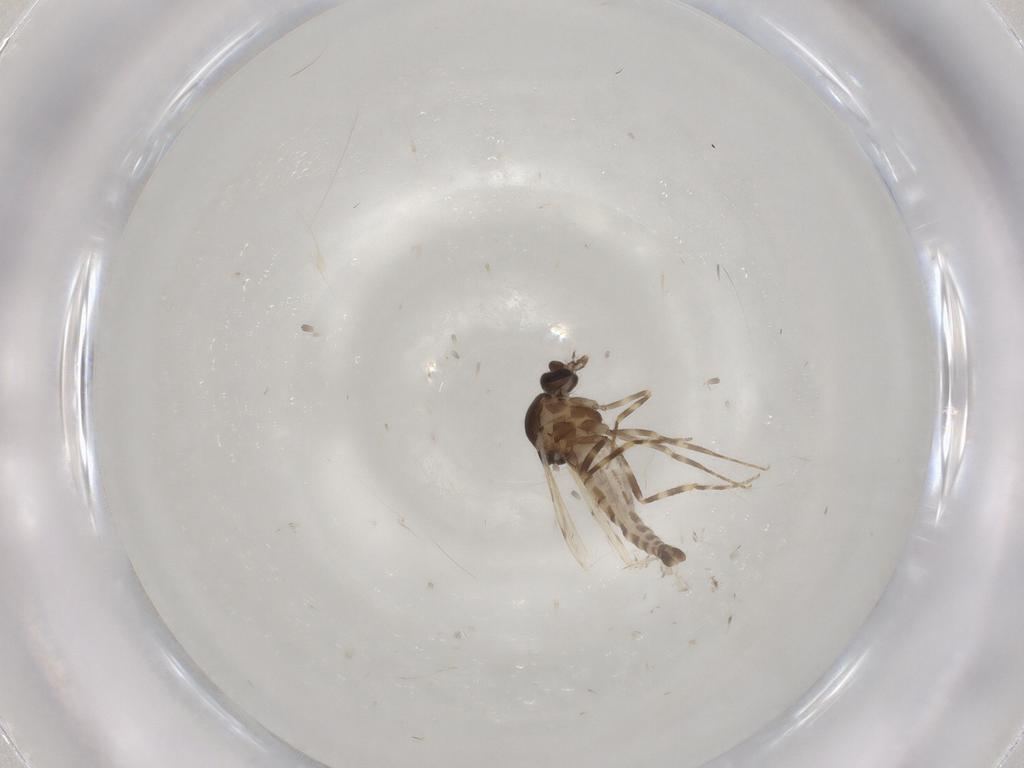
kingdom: Animalia
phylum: Arthropoda
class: Insecta
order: Diptera
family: Ceratopogonidae
